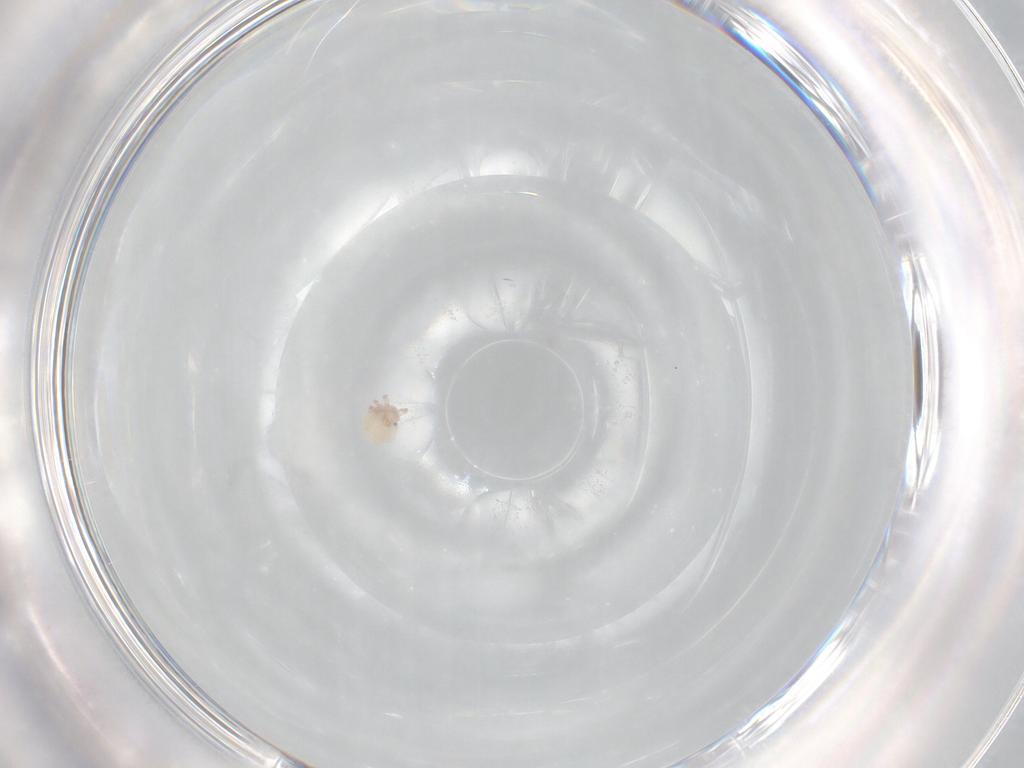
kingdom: Animalia
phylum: Arthropoda
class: Arachnida
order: Trombidiformes
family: Lebertiidae
